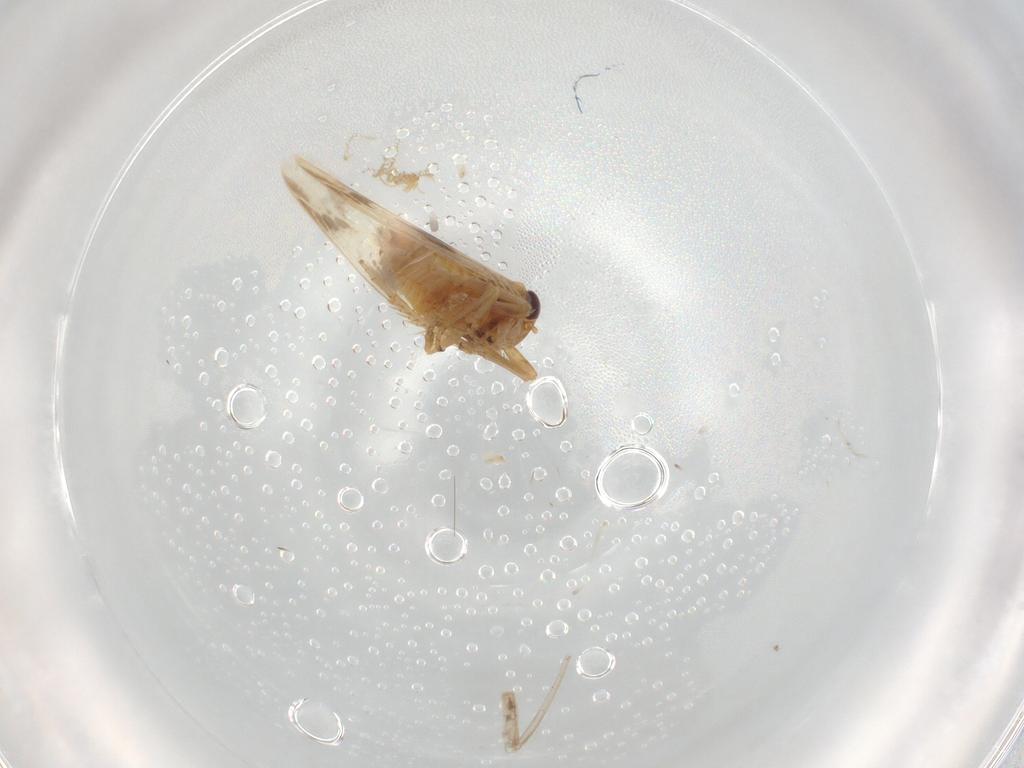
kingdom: Animalia
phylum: Arthropoda
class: Insecta
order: Hemiptera
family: Cicadellidae
